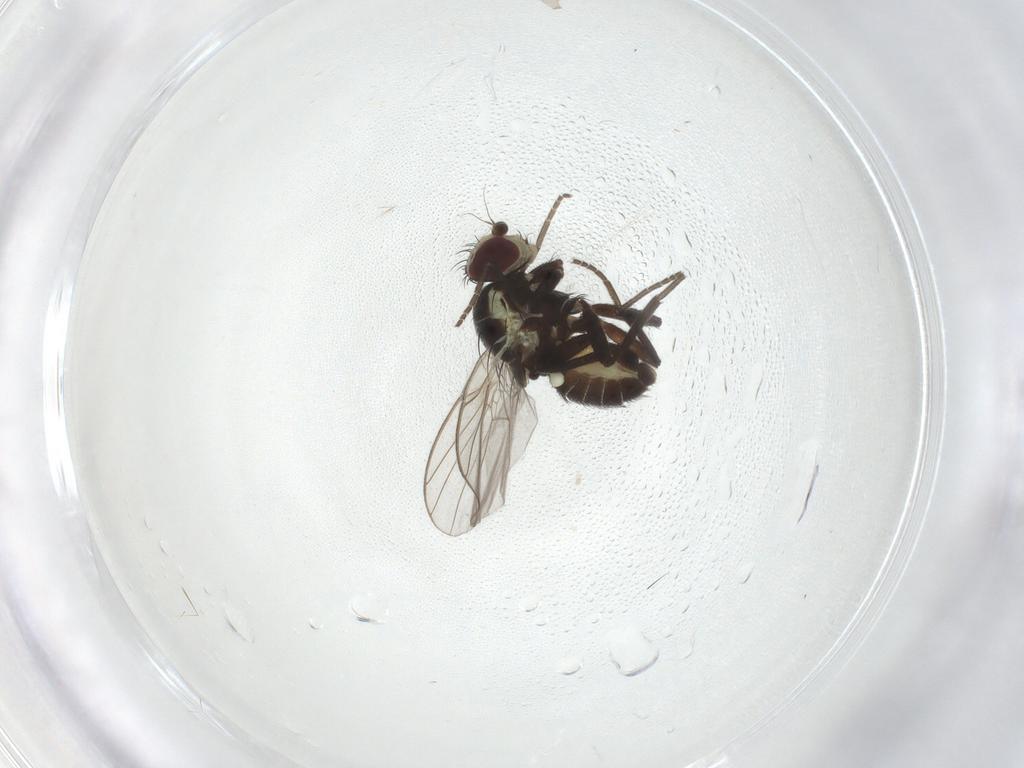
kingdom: Animalia
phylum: Arthropoda
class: Insecta
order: Diptera
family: Agromyzidae
